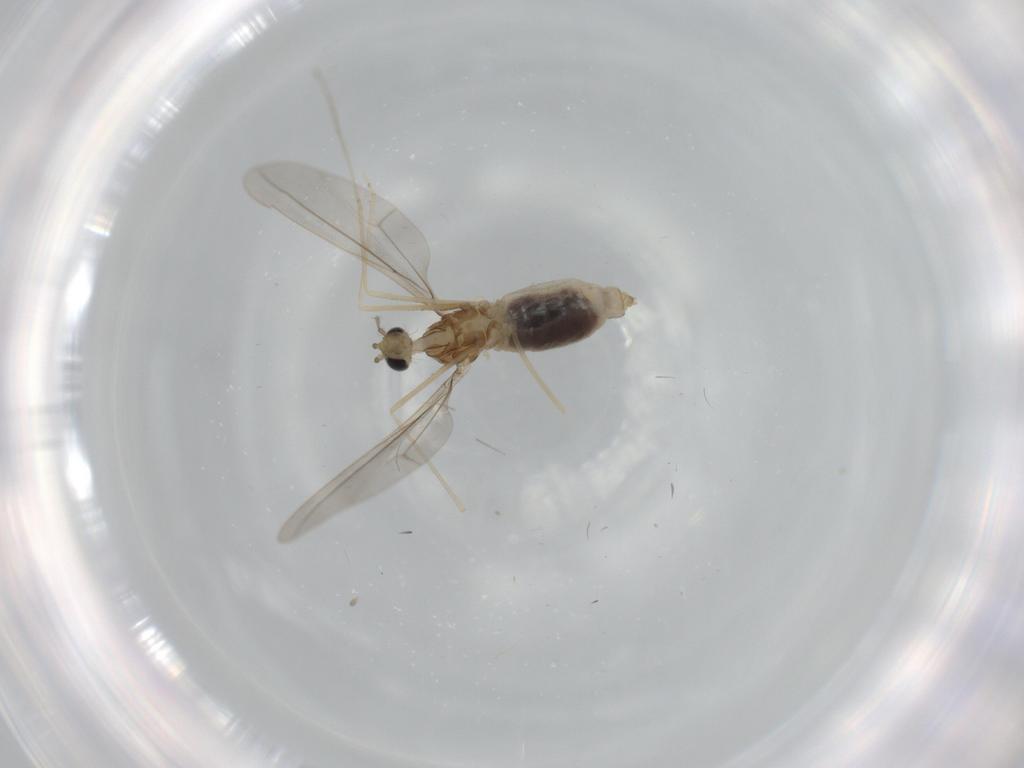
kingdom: Animalia
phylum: Arthropoda
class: Insecta
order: Diptera
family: Cecidomyiidae
